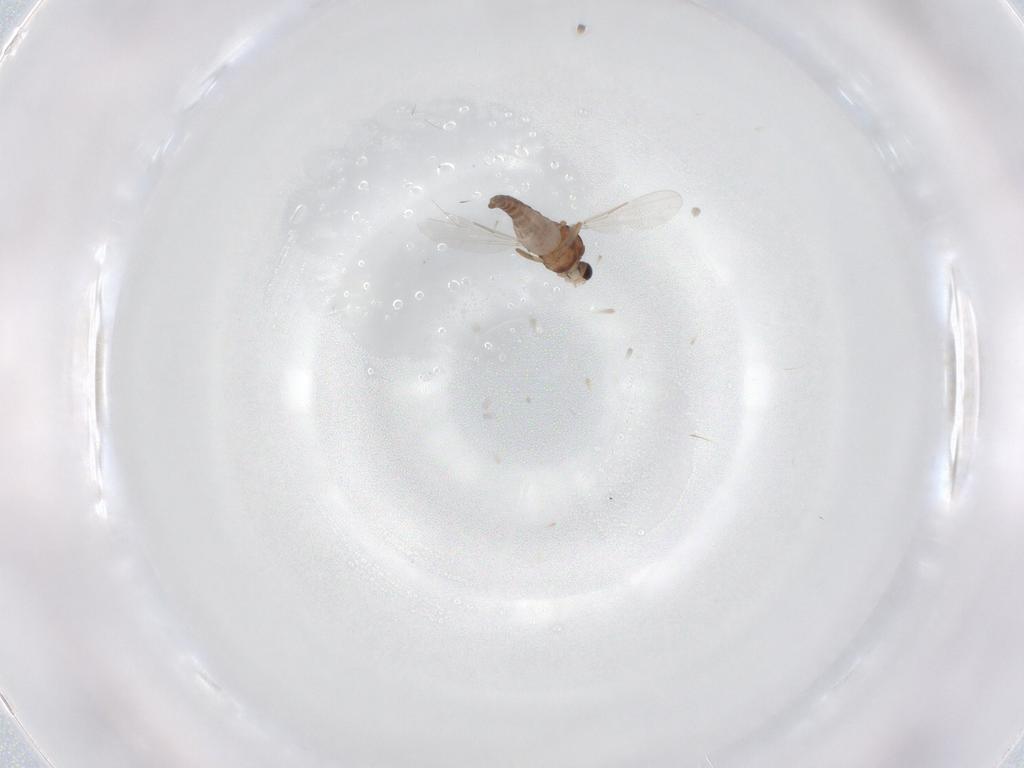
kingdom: Animalia
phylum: Arthropoda
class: Insecta
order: Diptera
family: Ceratopogonidae
